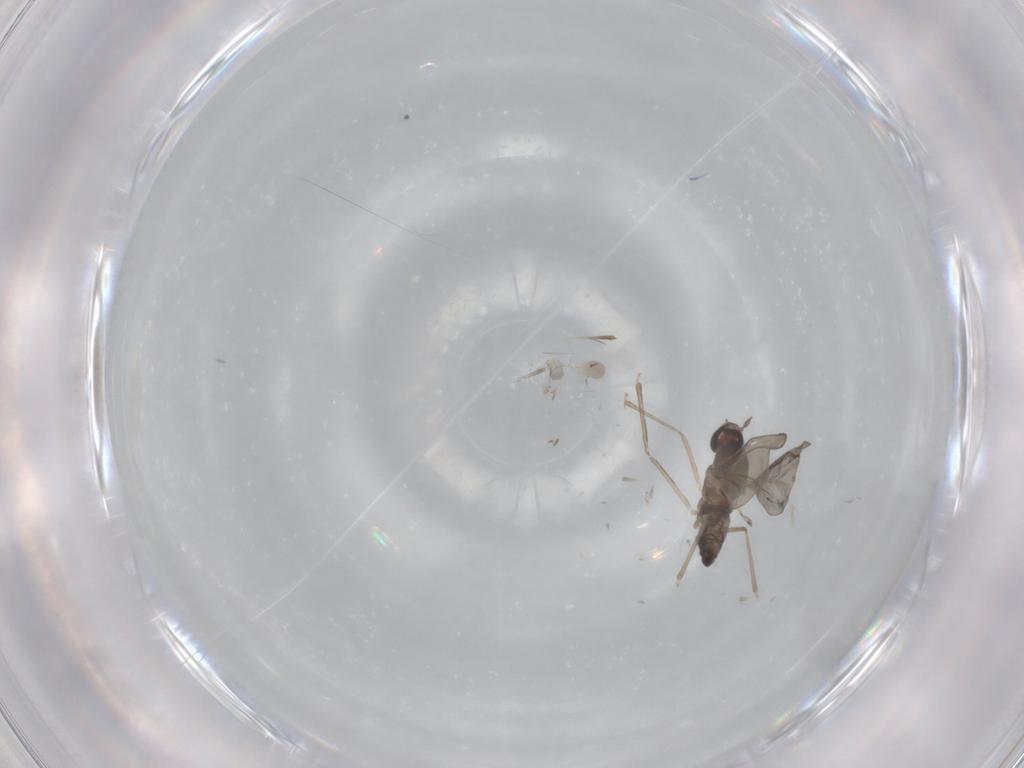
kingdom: Animalia
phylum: Arthropoda
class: Insecta
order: Diptera
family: Cecidomyiidae
